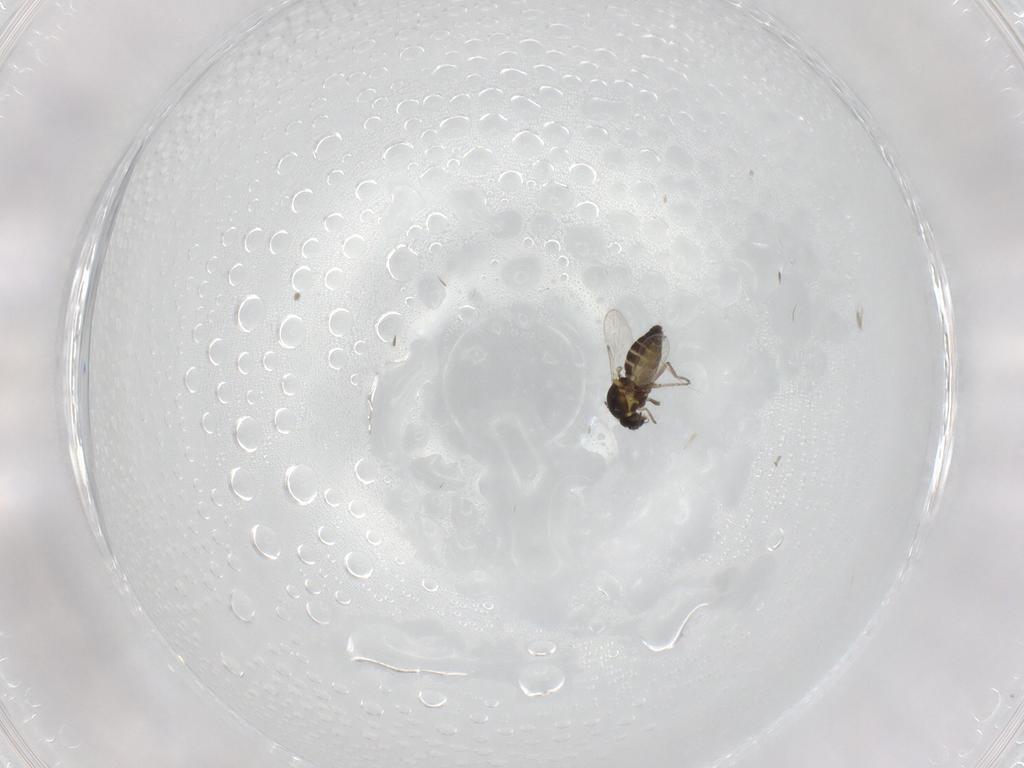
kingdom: Animalia
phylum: Arthropoda
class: Insecta
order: Diptera
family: Ceratopogonidae
